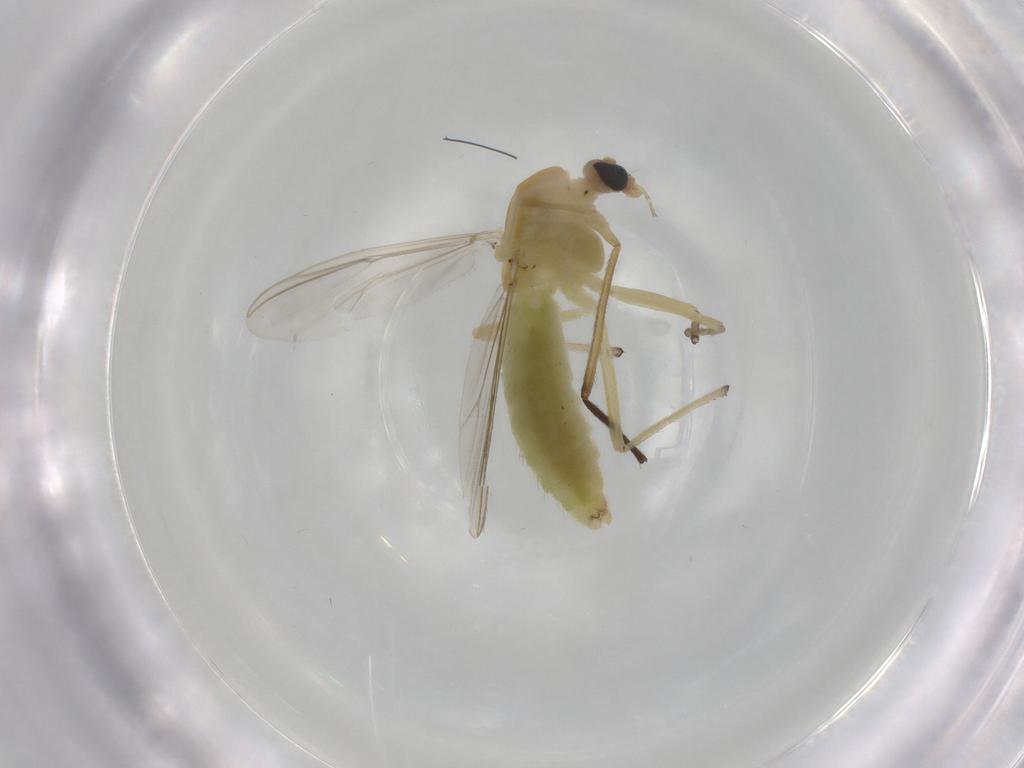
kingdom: Animalia
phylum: Arthropoda
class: Insecta
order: Diptera
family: Chironomidae
